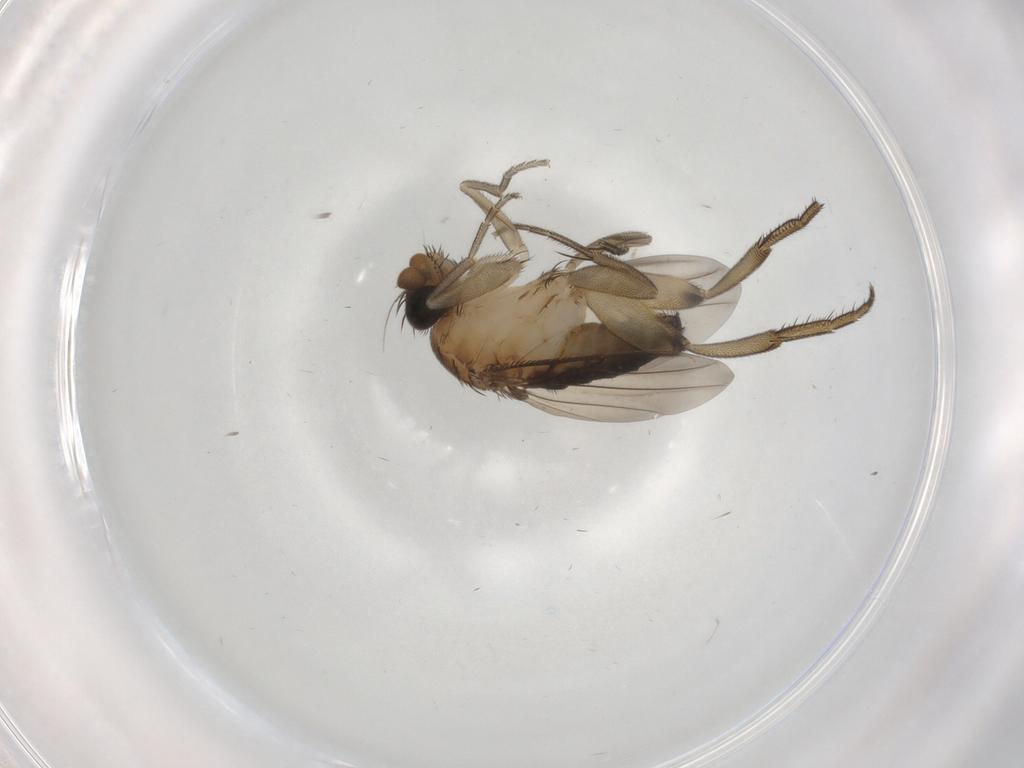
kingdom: Animalia
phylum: Arthropoda
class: Insecta
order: Diptera
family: Phoridae
